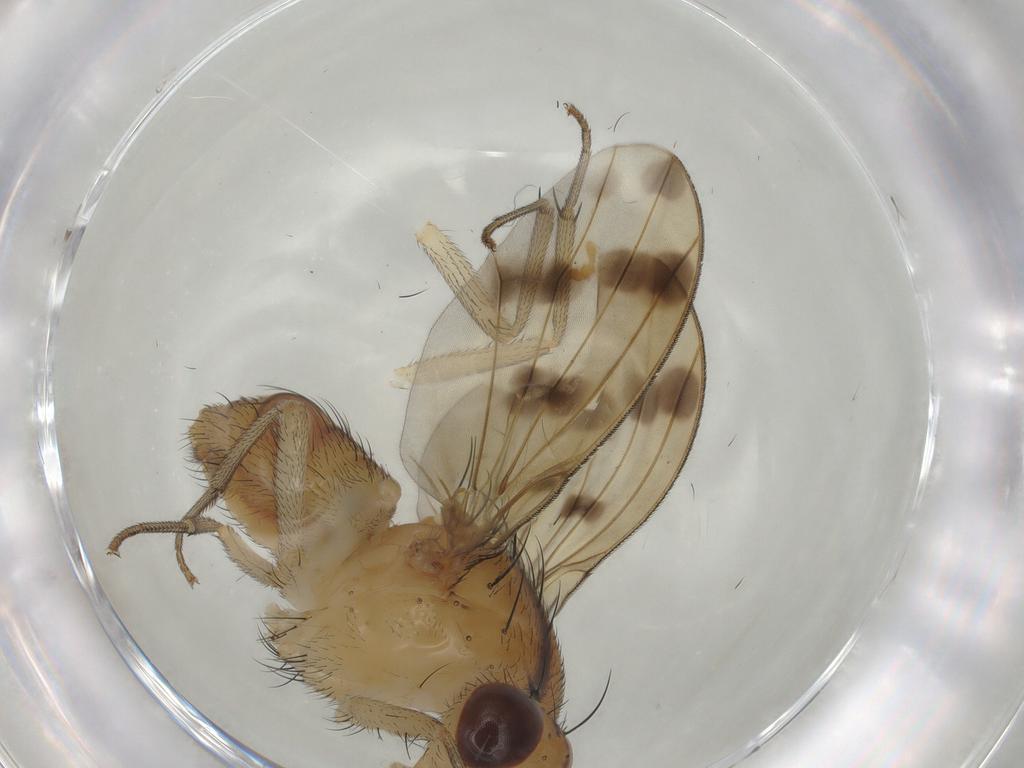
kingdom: Animalia
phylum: Arthropoda
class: Insecta
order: Diptera
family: Lauxaniidae
